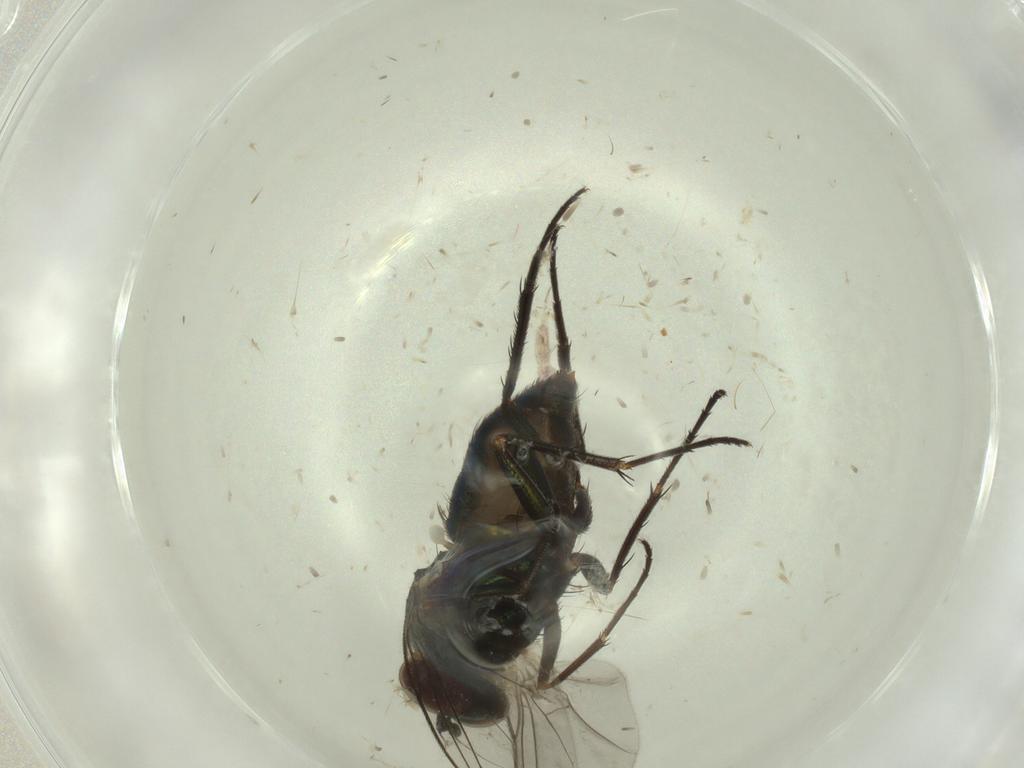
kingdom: Animalia
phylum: Arthropoda
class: Insecta
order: Diptera
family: Dolichopodidae
